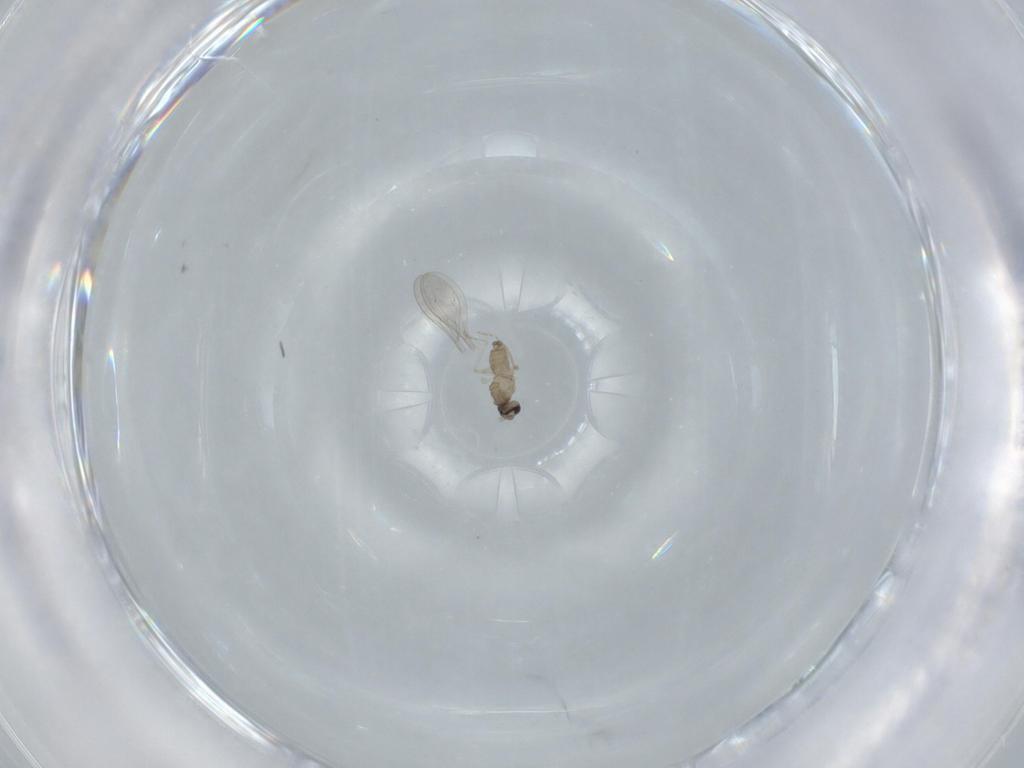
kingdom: Animalia
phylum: Arthropoda
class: Insecta
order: Diptera
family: Cecidomyiidae
